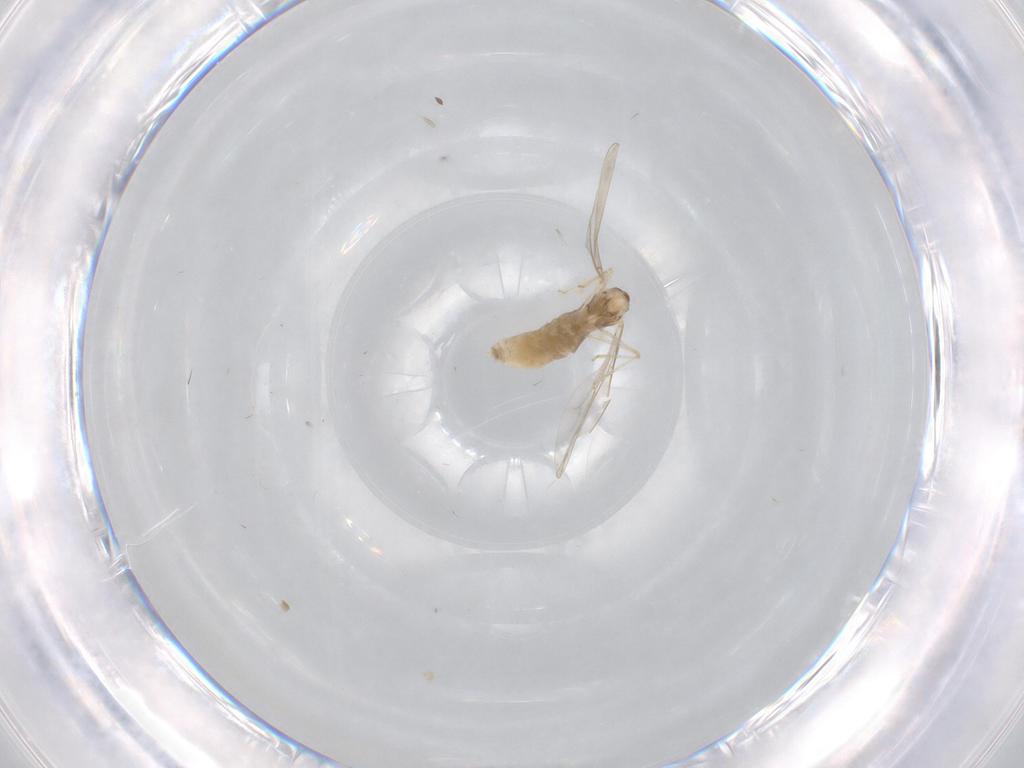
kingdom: Animalia
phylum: Arthropoda
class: Insecta
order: Diptera
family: Cecidomyiidae
